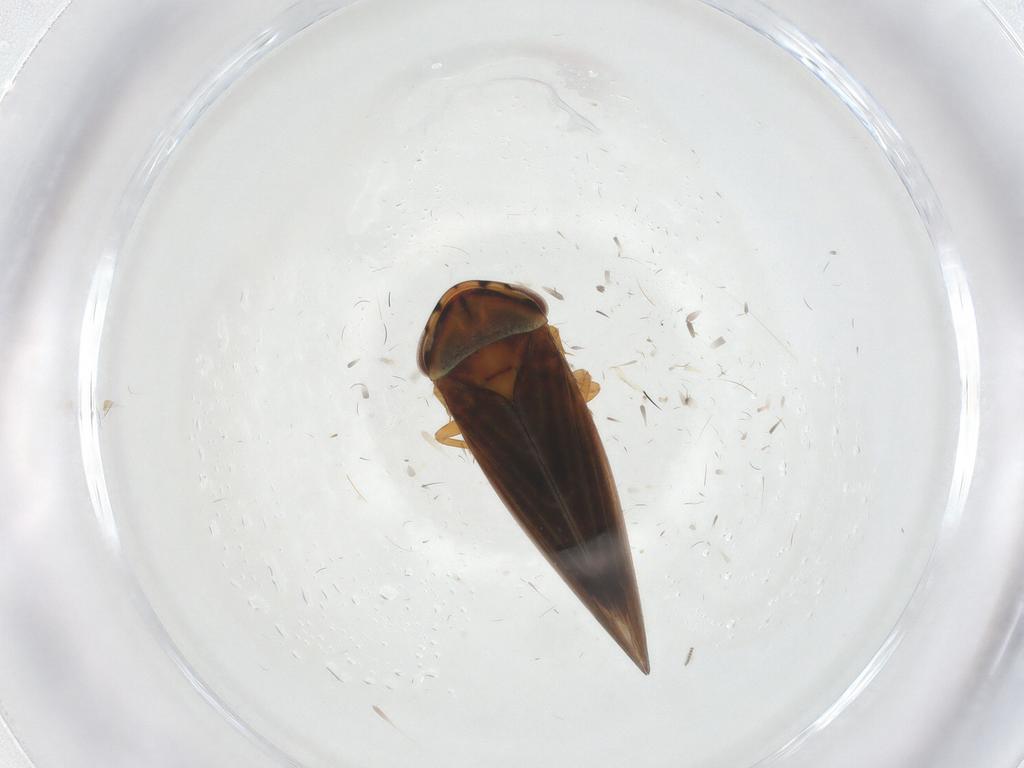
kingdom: Animalia
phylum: Arthropoda
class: Insecta
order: Hemiptera
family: Cicadellidae
